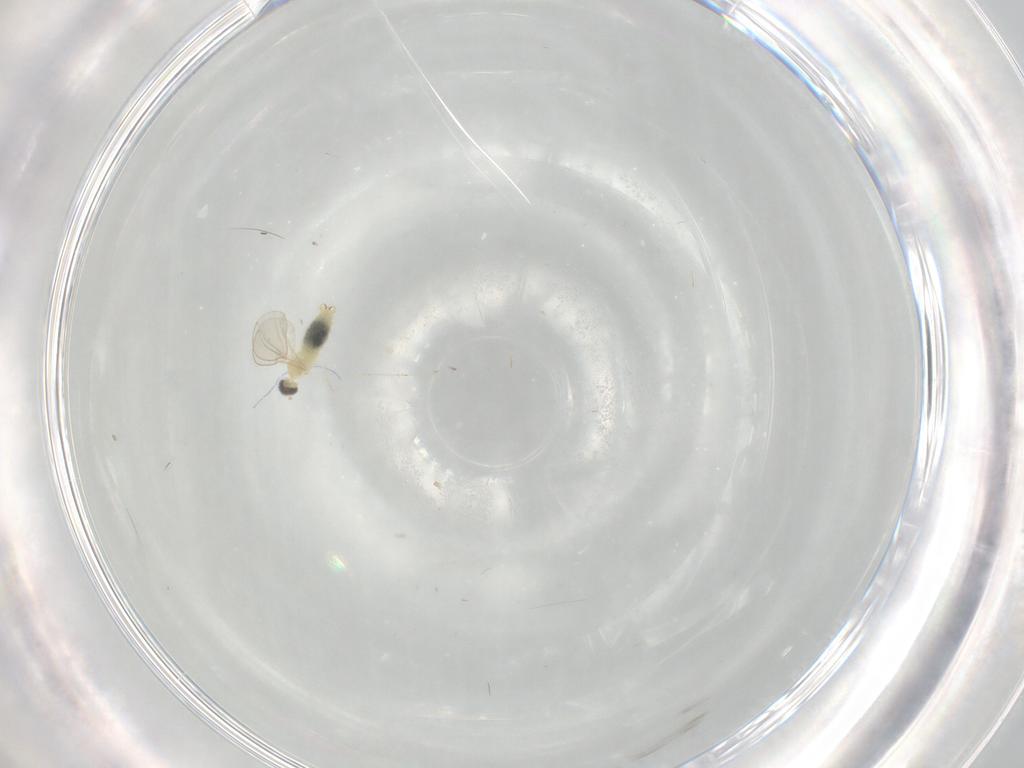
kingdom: Animalia
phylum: Arthropoda
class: Insecta
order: Diptera
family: Cecidomyiidae
